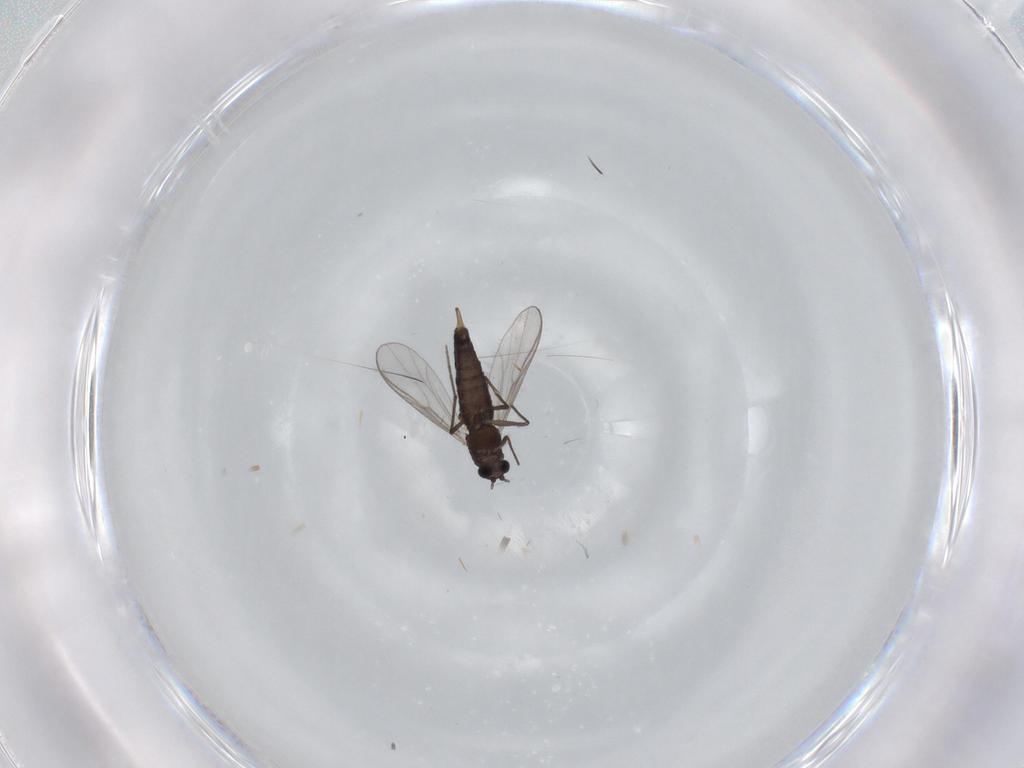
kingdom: Animalia
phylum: Arthropoda
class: Insecta
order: Diptera
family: Chironomidae
